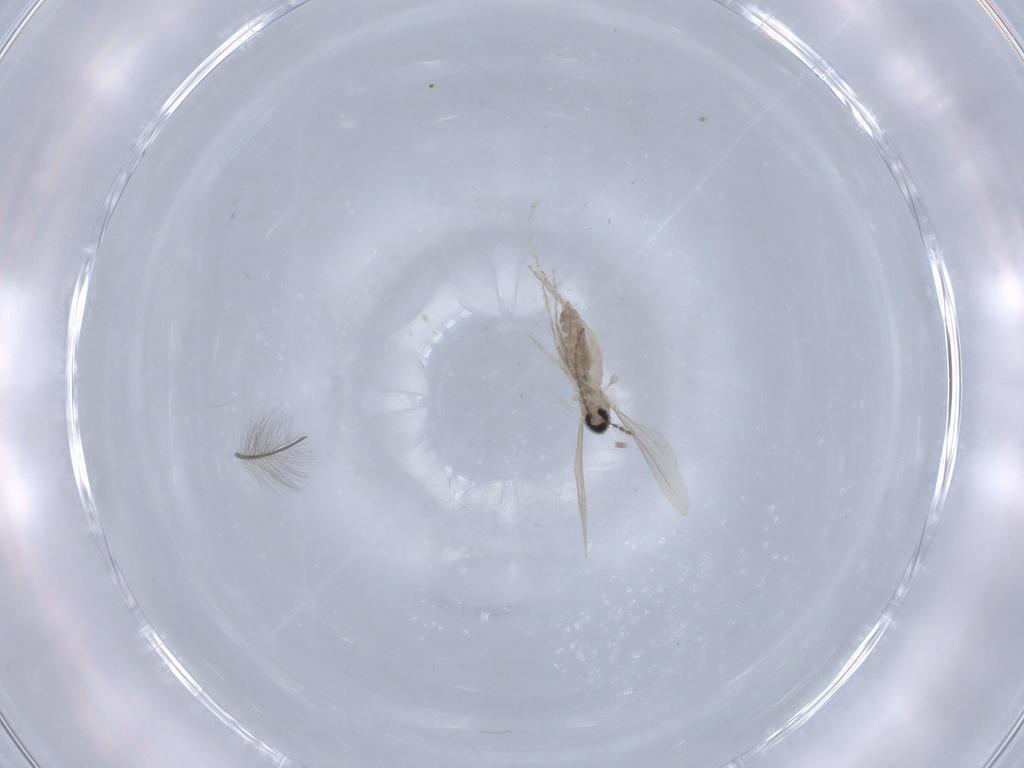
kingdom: Animalia
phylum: Arthropoda
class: Insecta
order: Diptera
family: Cecidomyiidae
